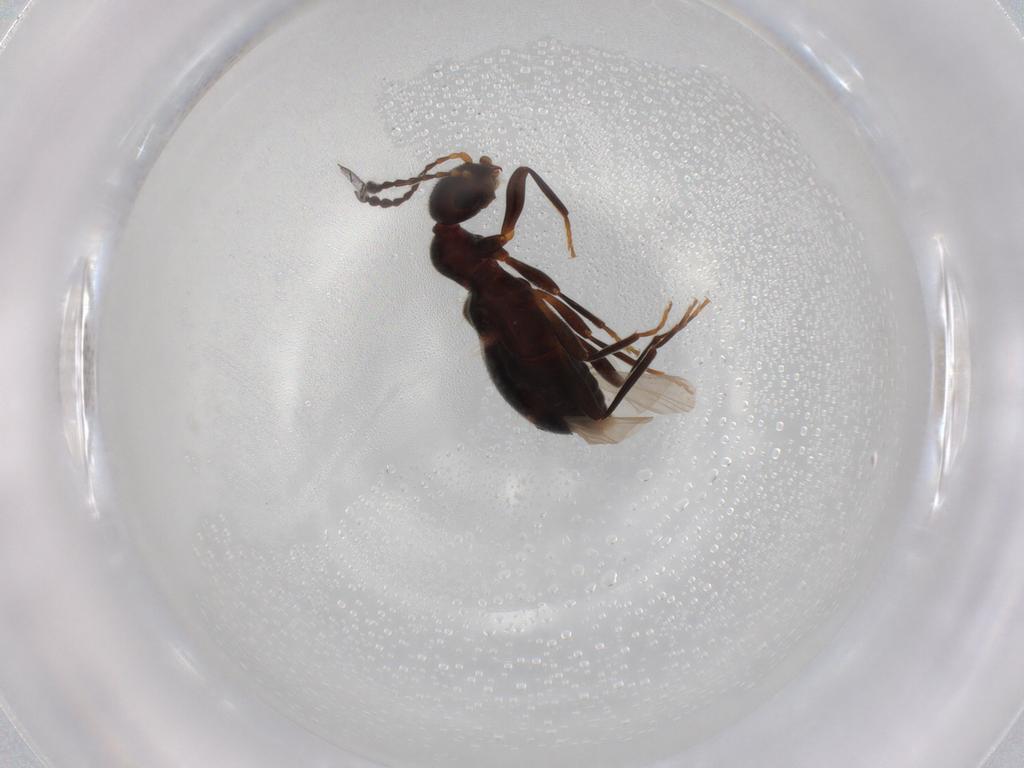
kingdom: Animalia
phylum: Arthropoda
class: Insecta
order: Coleoptera
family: Anthicidae
